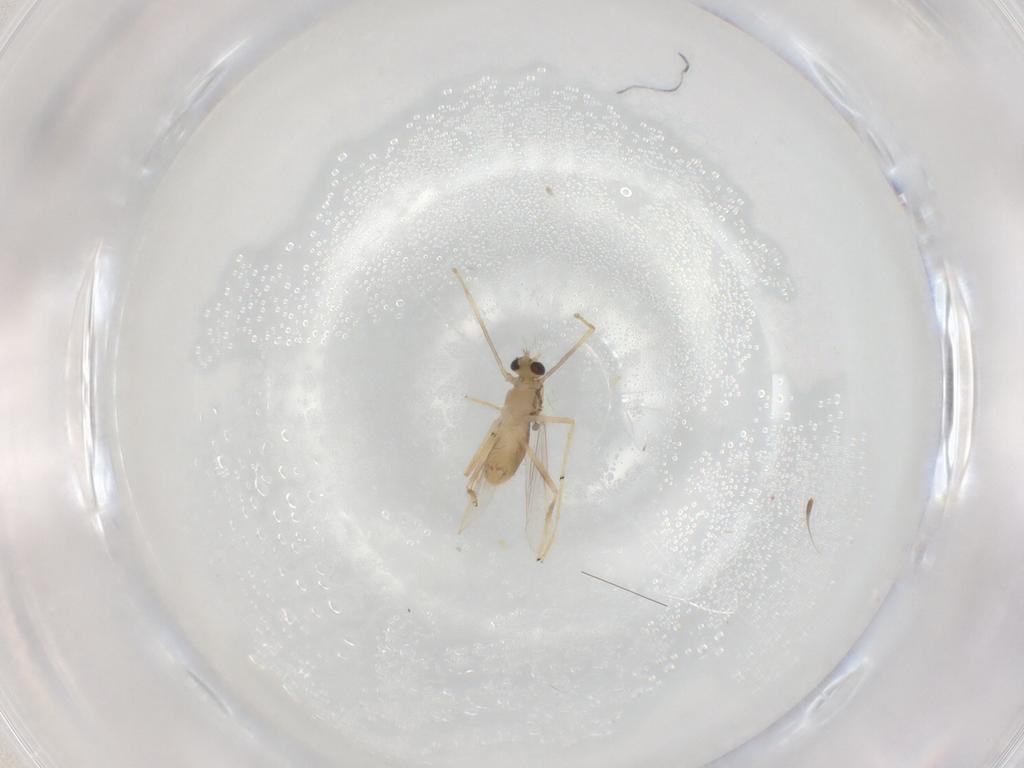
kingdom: Animalia
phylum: Arthropoda
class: Insecta
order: Diptera
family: Chironomidae
